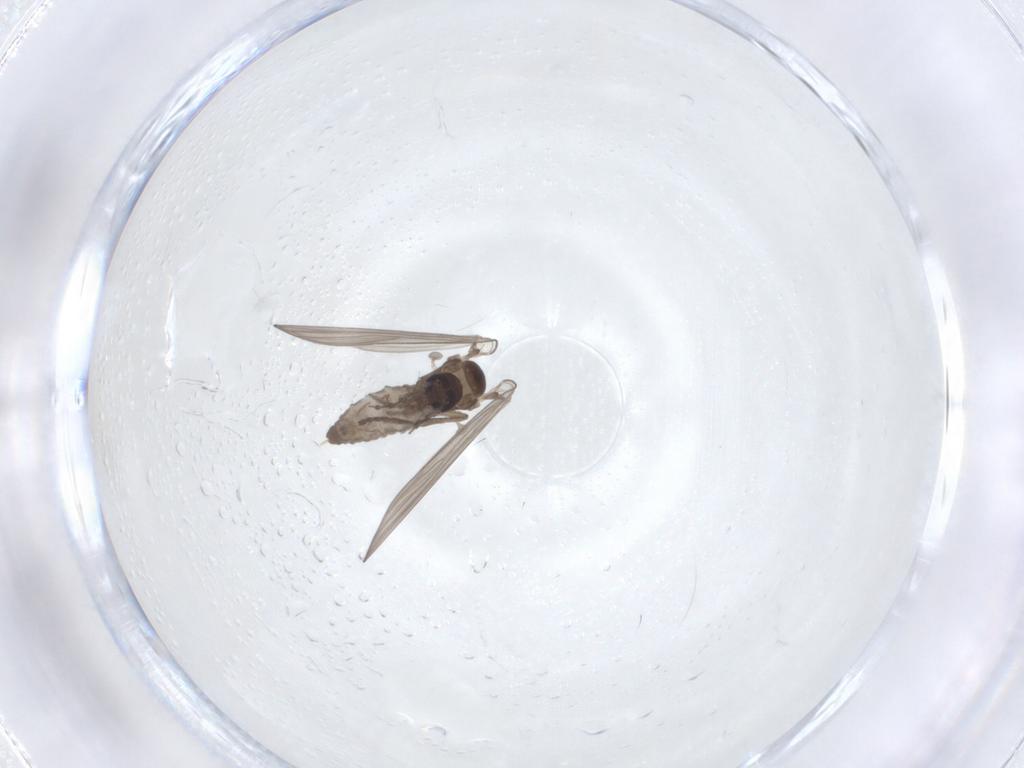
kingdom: Animalia
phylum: Arthropoda
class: Insecta
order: Diptera
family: Psychodidae
